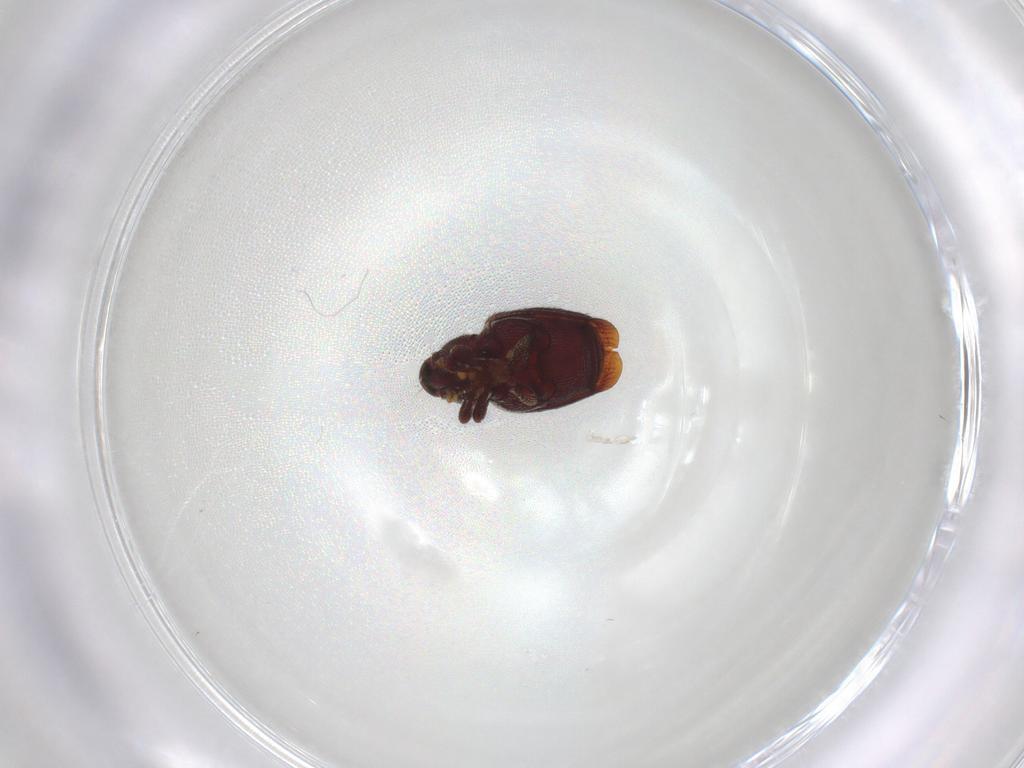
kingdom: Animalia
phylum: Arthropoda
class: Insecta
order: Coleoptera
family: Curculionidae
